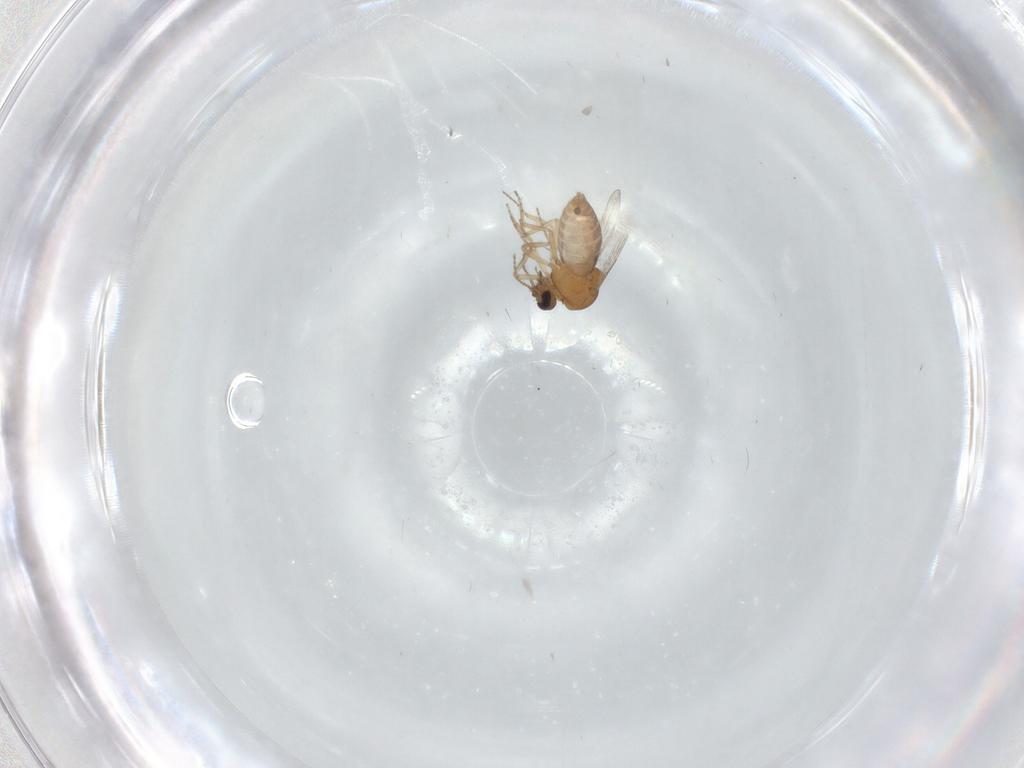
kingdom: Animalia
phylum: Arthropoda
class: Insecta
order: Diptera
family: Ceratopogonidae
